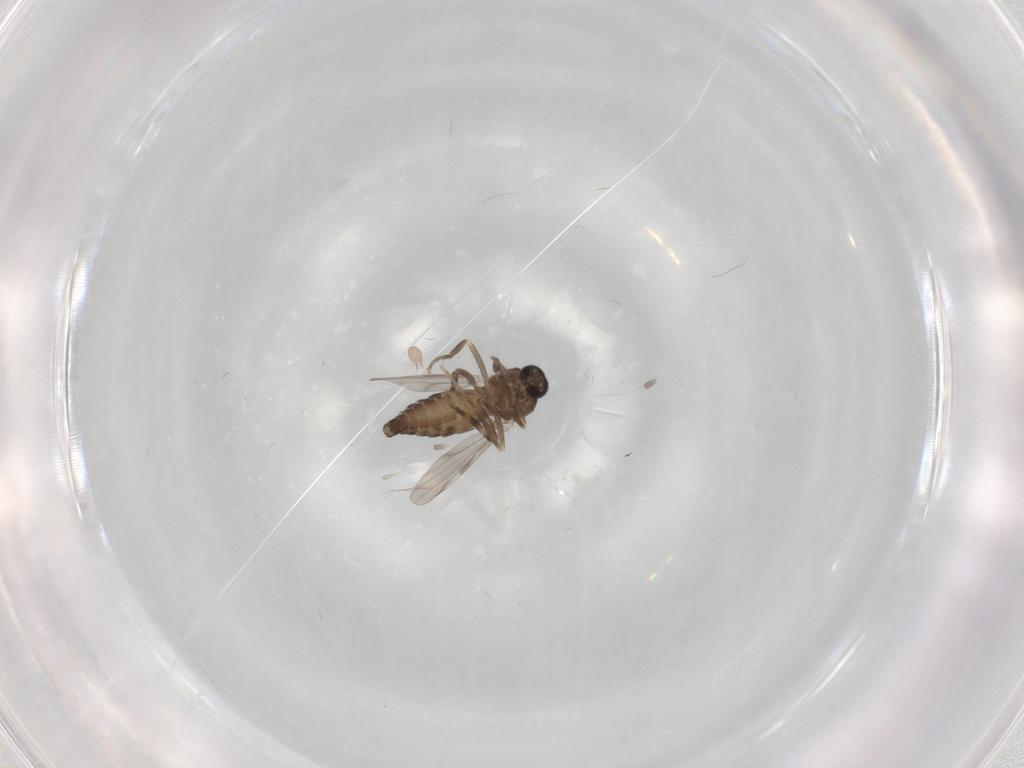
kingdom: Animalia
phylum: Arthropoda
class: Insecta
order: Diptera
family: Ceratopogonidae
